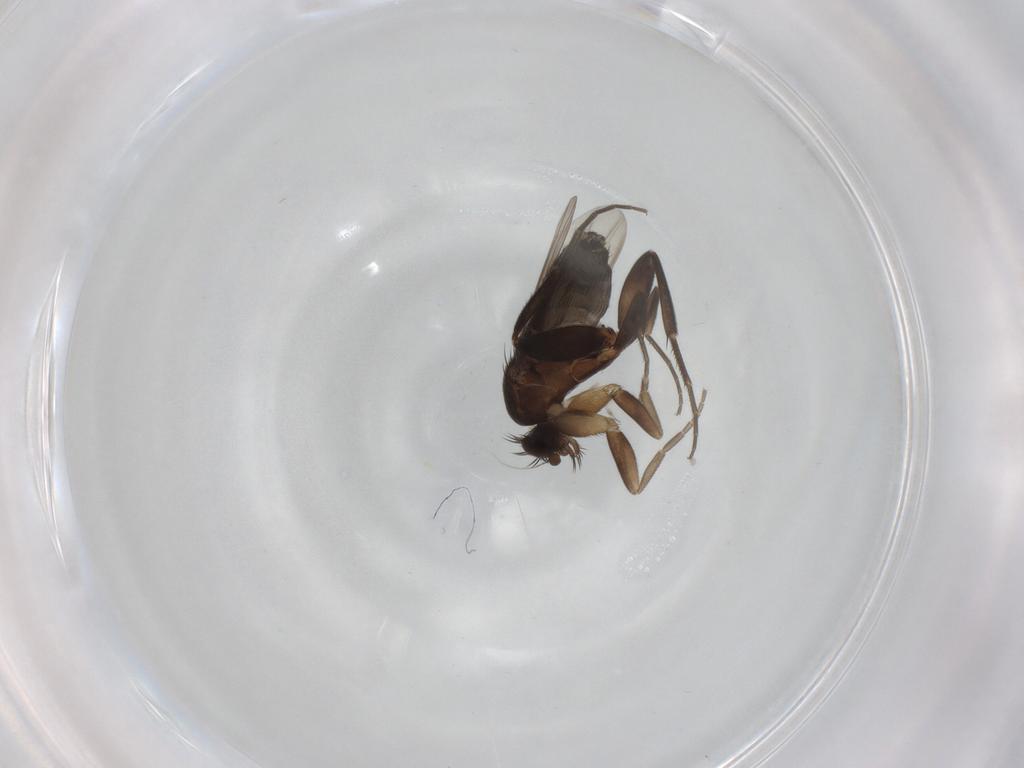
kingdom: Animalia
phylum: Arthropoda
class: Insecta
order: Diptera
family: Phoridae
